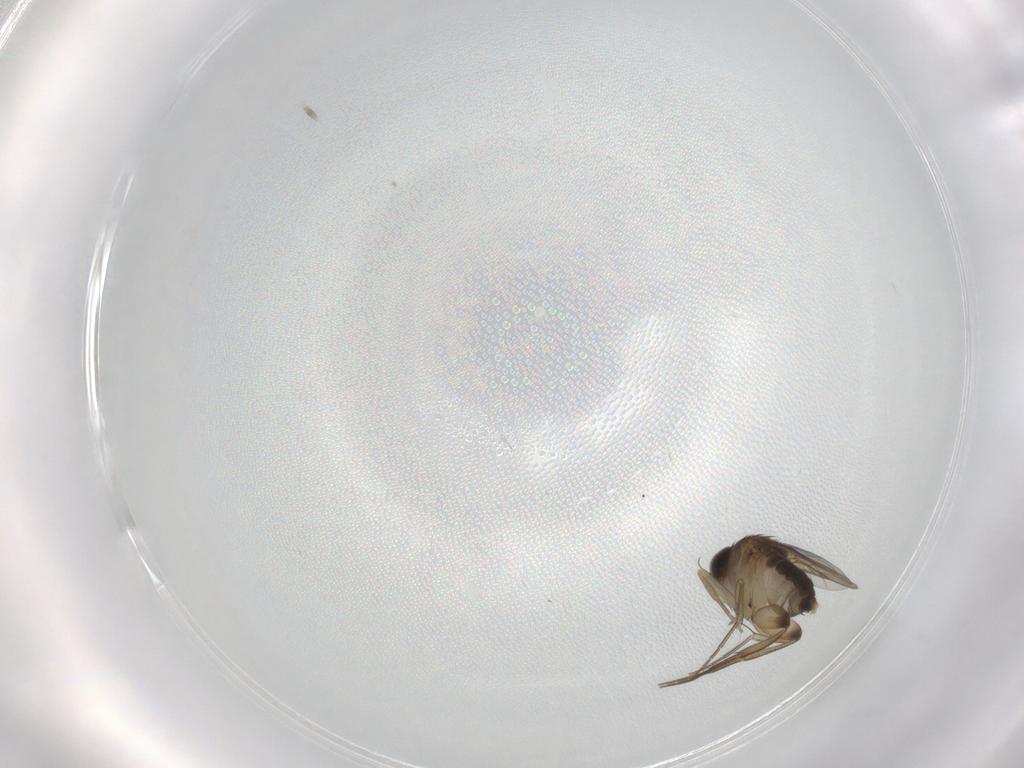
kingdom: Animalia
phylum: Arthropoda
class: Insecta
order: Diptera
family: Phoridae
